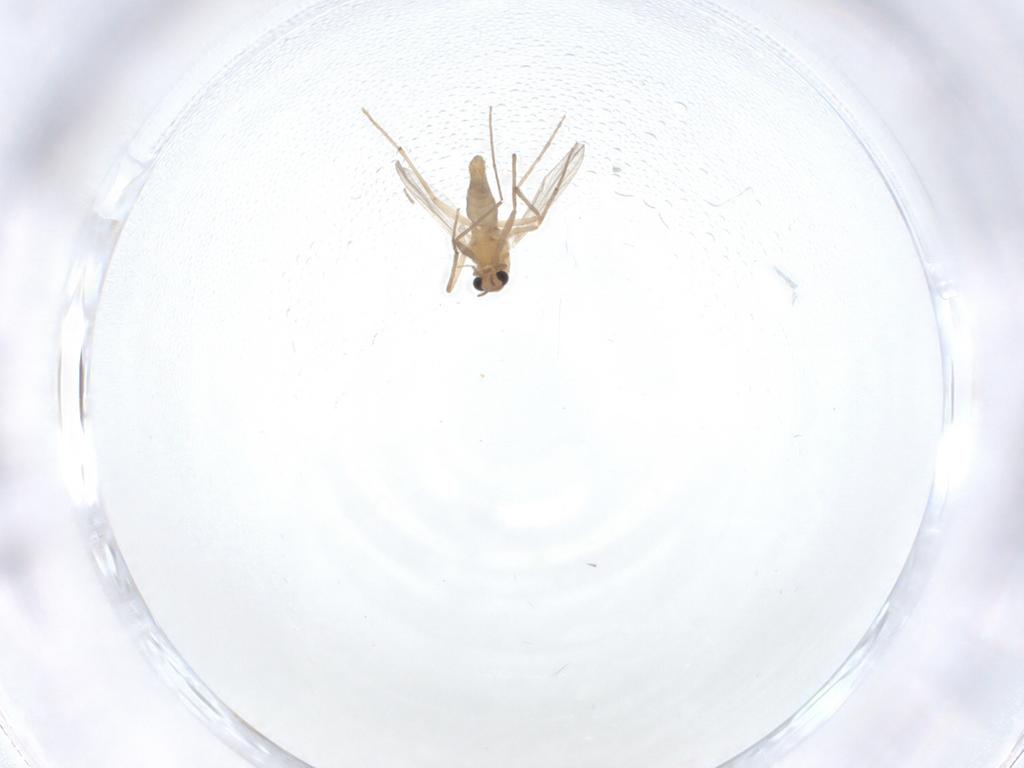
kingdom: Animalia
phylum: Arthropoda
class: Insecta
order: Diptera
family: Chironomidae
